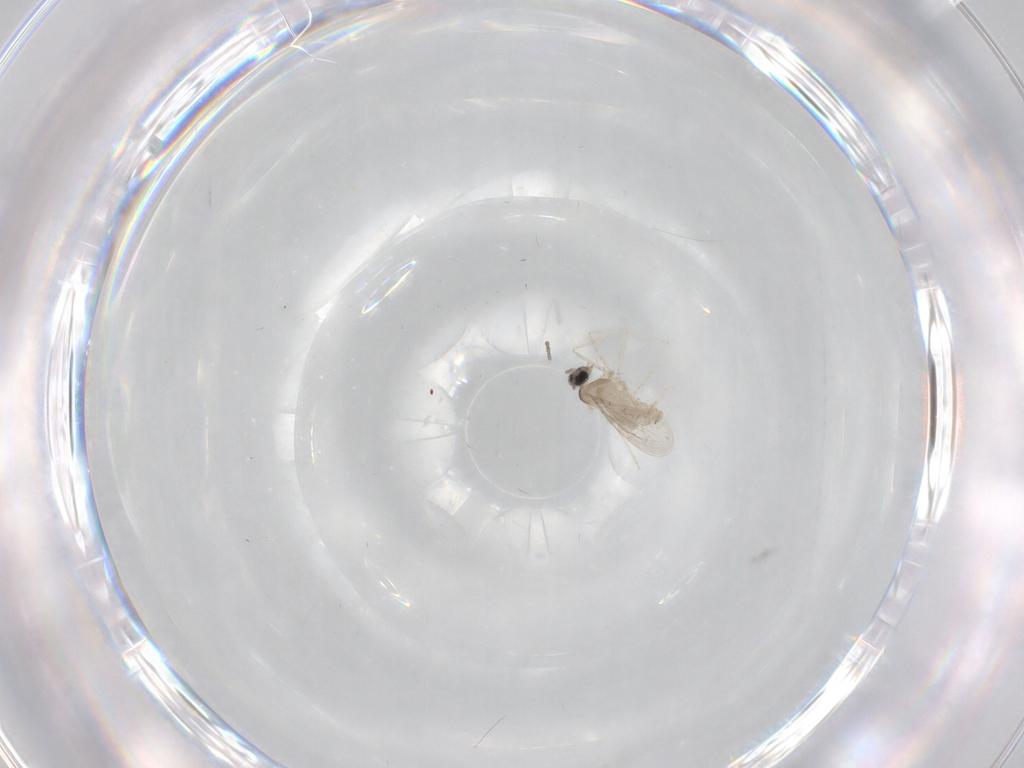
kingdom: Animalia
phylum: Arthropoda
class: Insecta
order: Diptera
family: Cecidomyiidae
